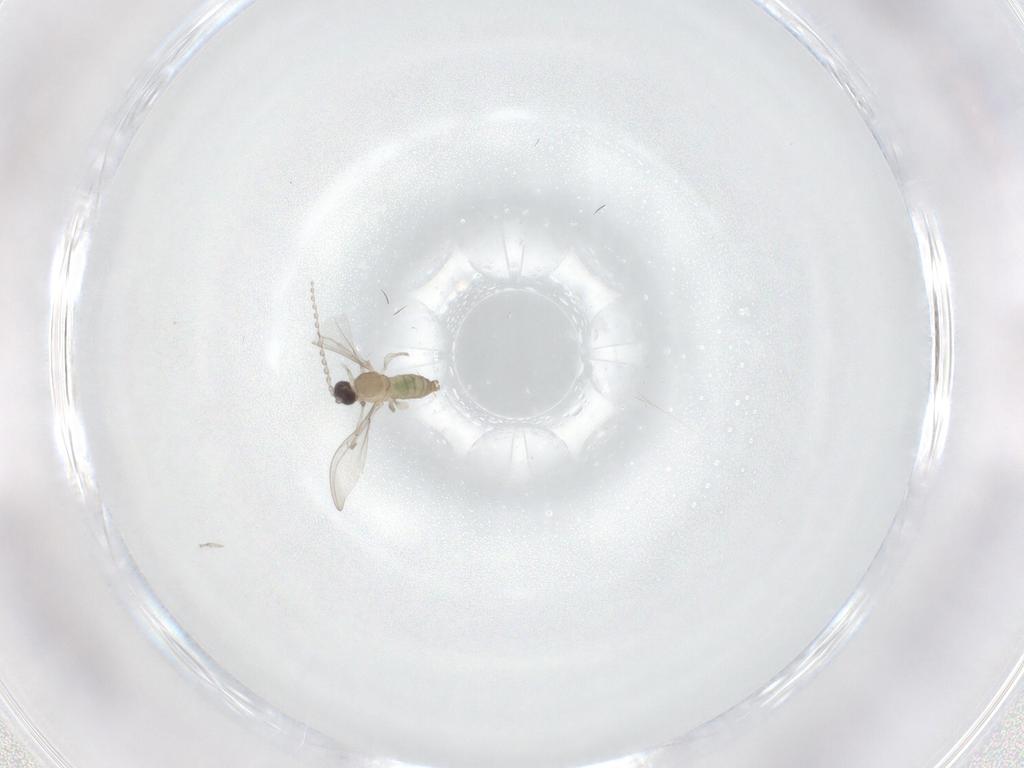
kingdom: Animalia
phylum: Arthropoda
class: Insecta
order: Diptera
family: Cecidomyiidae
